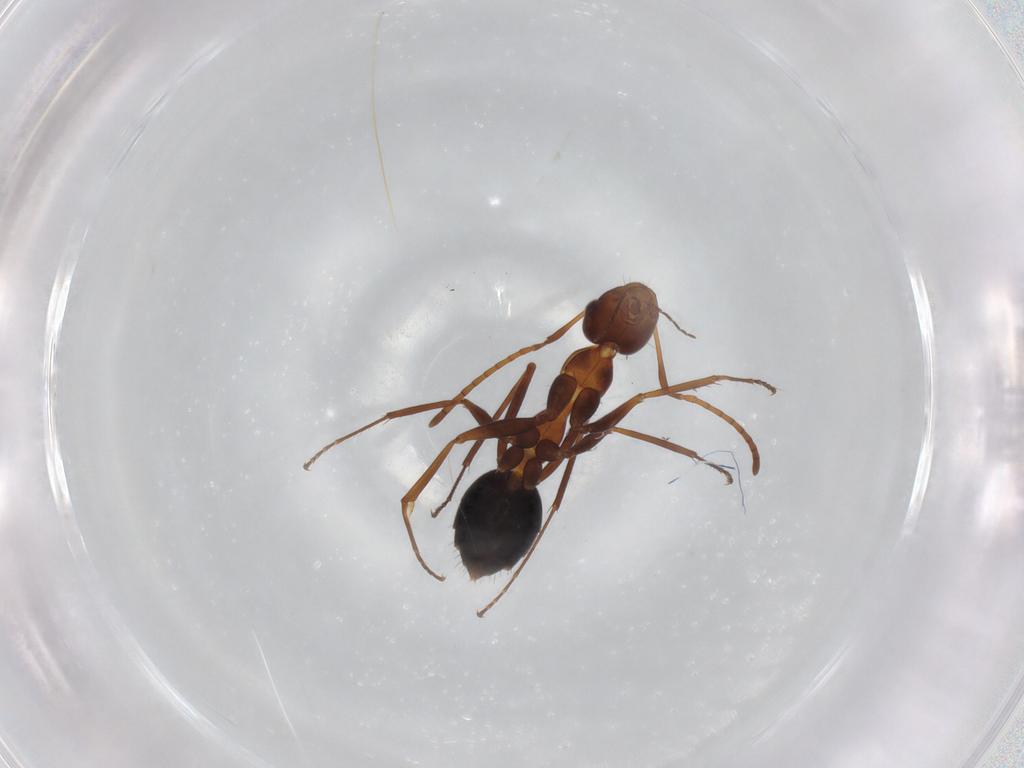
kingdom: Animalia
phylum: Arthropoda
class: Insecta
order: Hymenoptera
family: Formicidae
